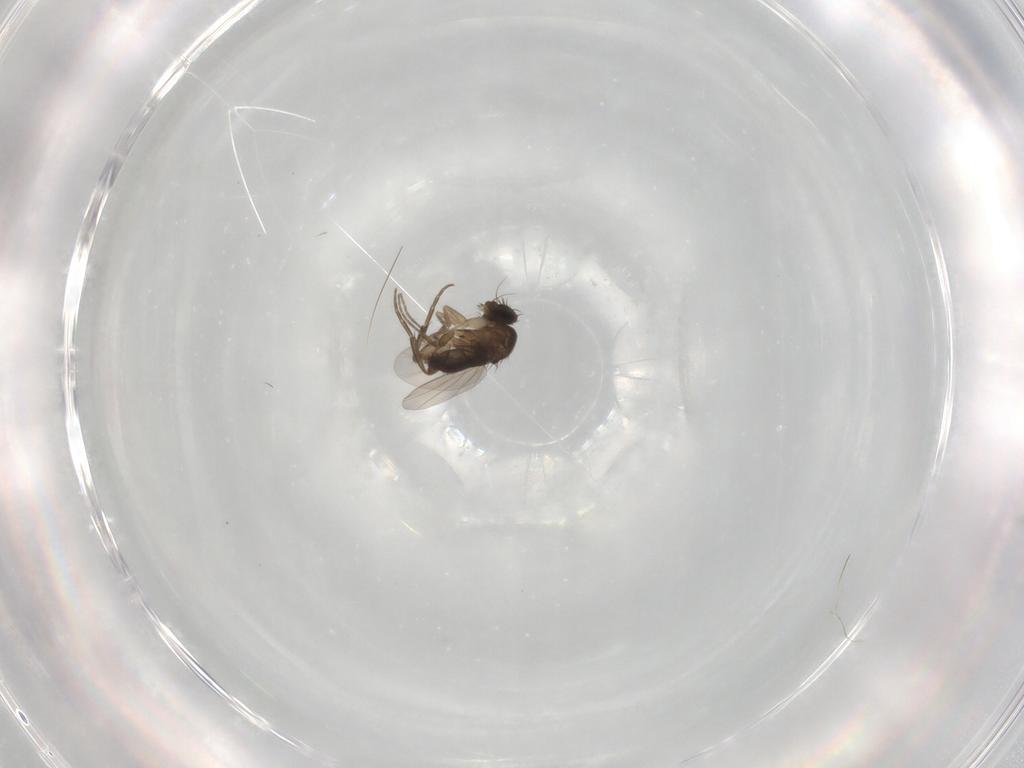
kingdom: Animalia
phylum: Arthropoda
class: Insecta
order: Diptera
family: Phoridae
